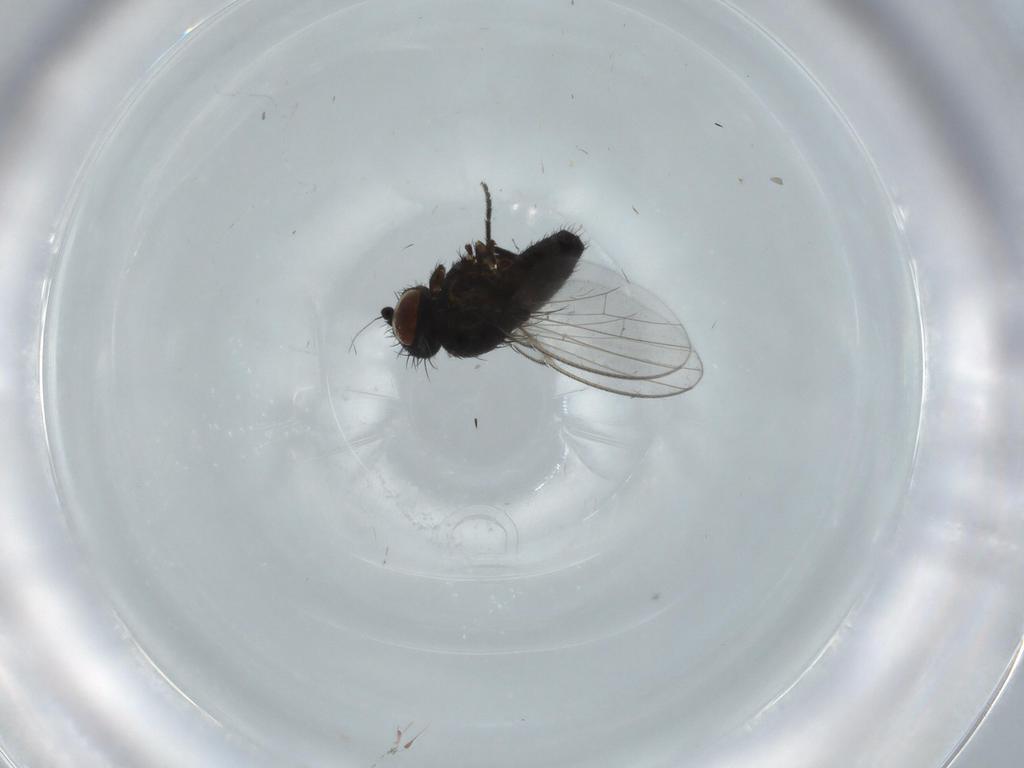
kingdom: Animalia
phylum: Arthropoda
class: Insecta
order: Diptera
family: Milichiidae
